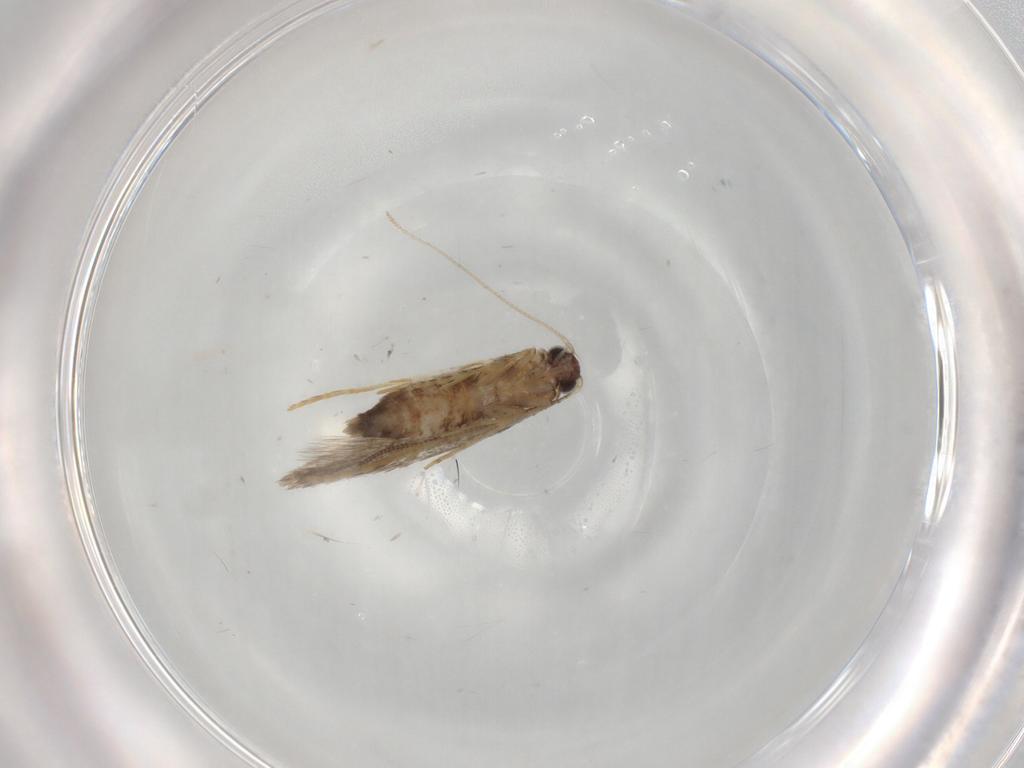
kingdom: Animalia
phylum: Arthropoda
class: Insecta
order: Lepidoptera
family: Tineidae
